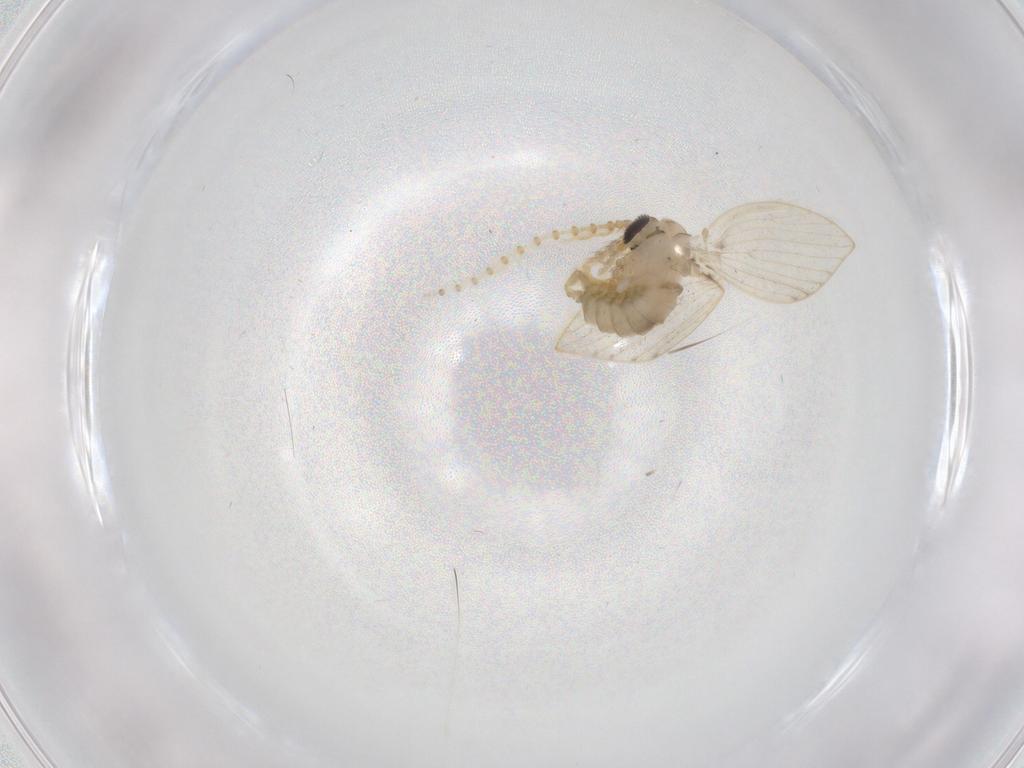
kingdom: Animalia
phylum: Arthropoda
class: Insecta
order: Diptera
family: Psychodidae
